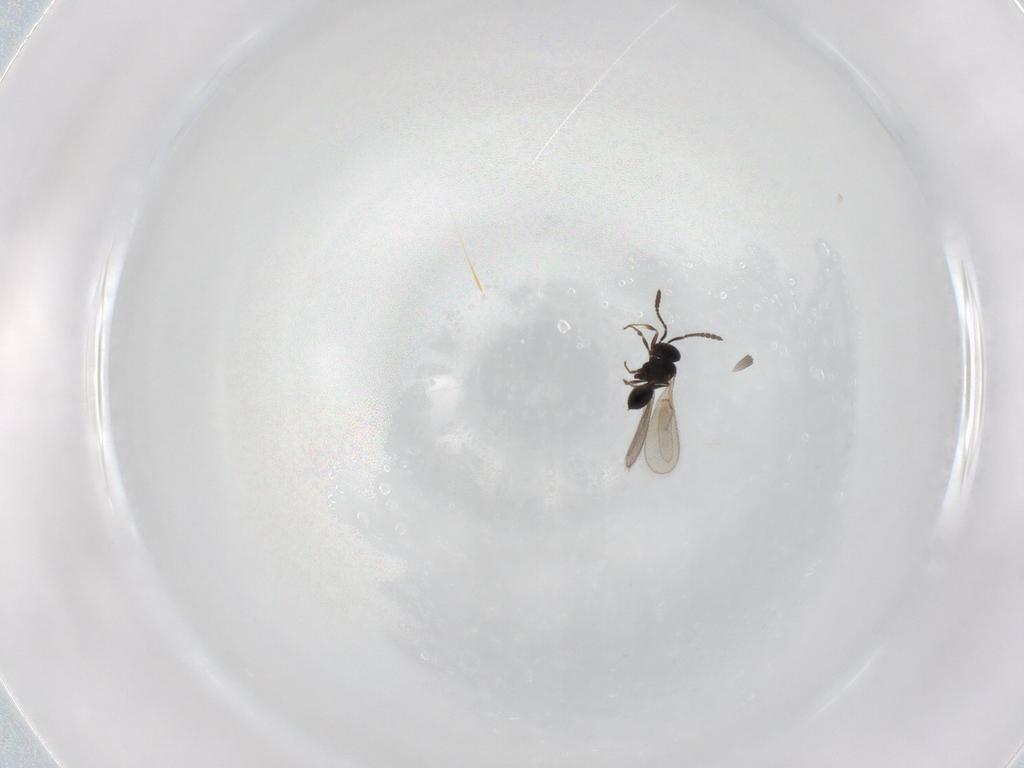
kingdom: Animalia
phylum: Arthropoda
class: Insecta
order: Hymenoptera
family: Scelionidae
